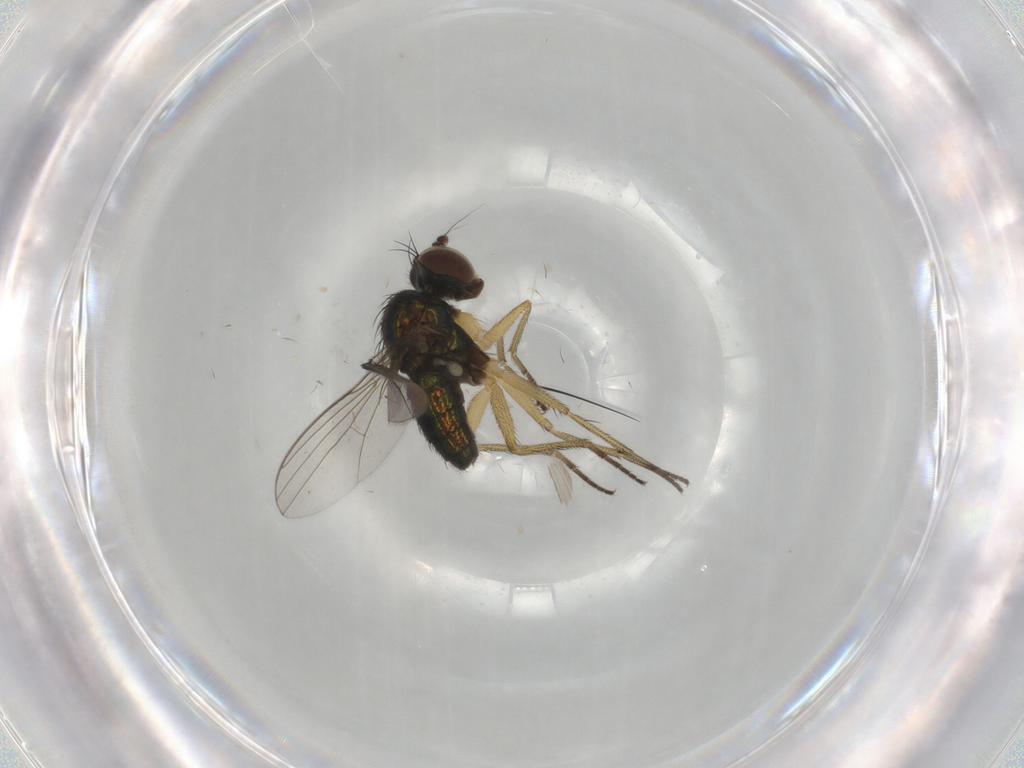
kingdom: Animalia
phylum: Arthropoda
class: Insecta
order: Diptera
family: Dolichopodidae
